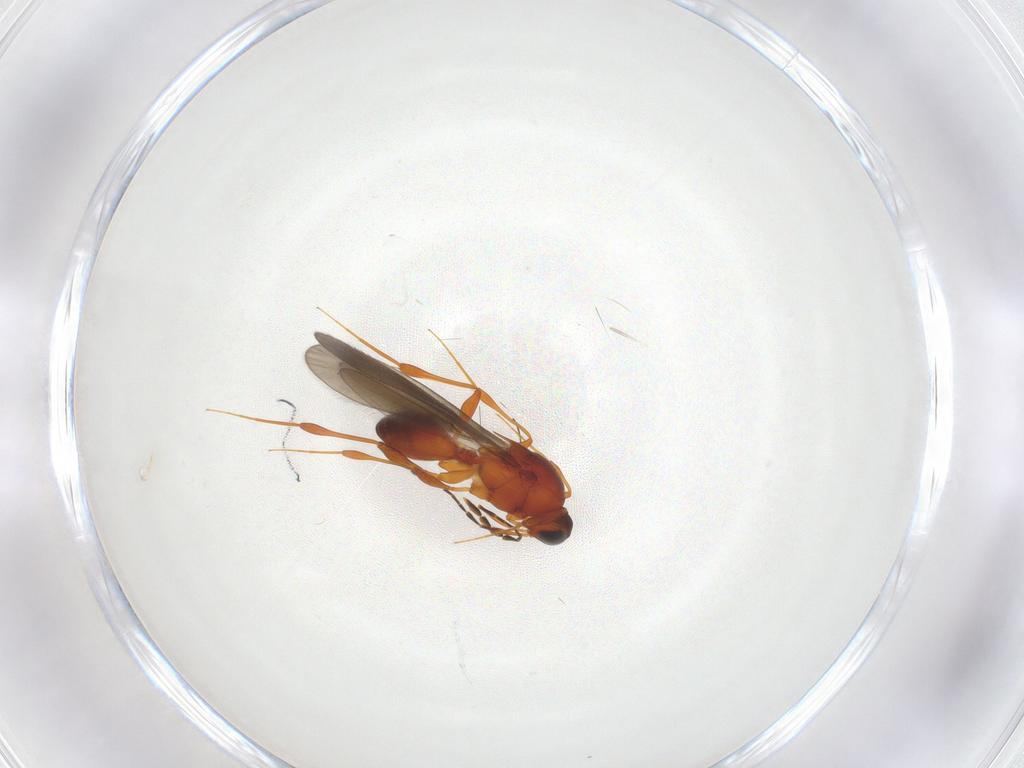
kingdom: Animalia
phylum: Arthropoda
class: Insecta
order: Hymenoptera
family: Platygastridae
